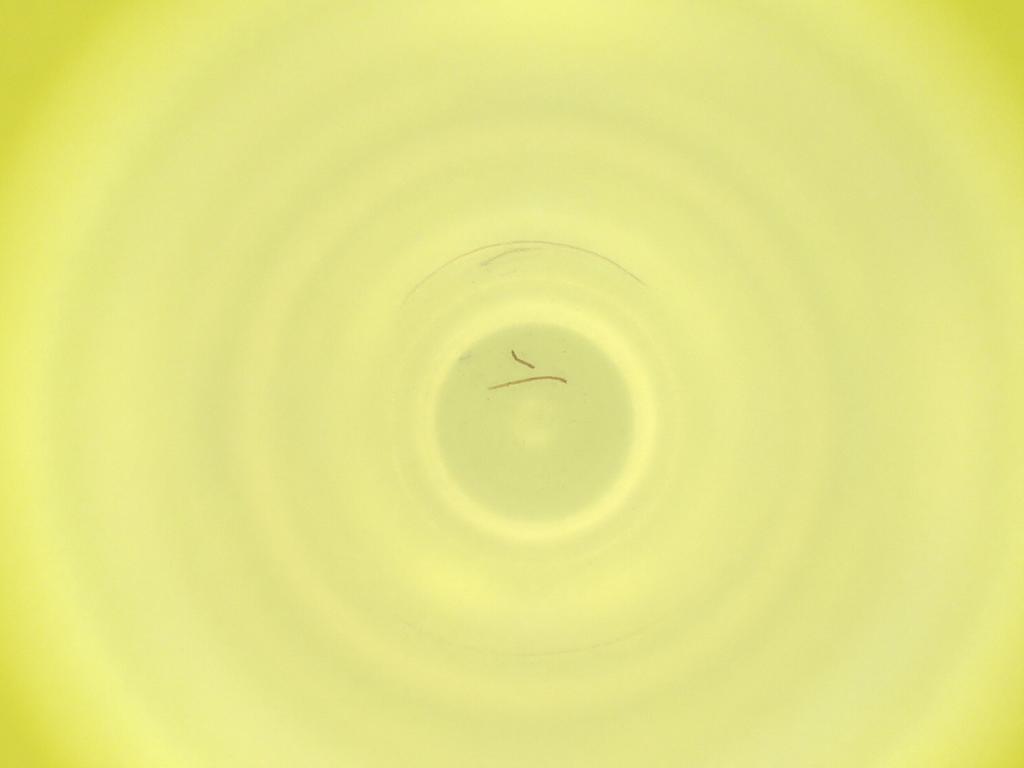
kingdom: Animalia
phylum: Arthropoda
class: Insecta
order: Diptera
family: Cecidomyiidae
